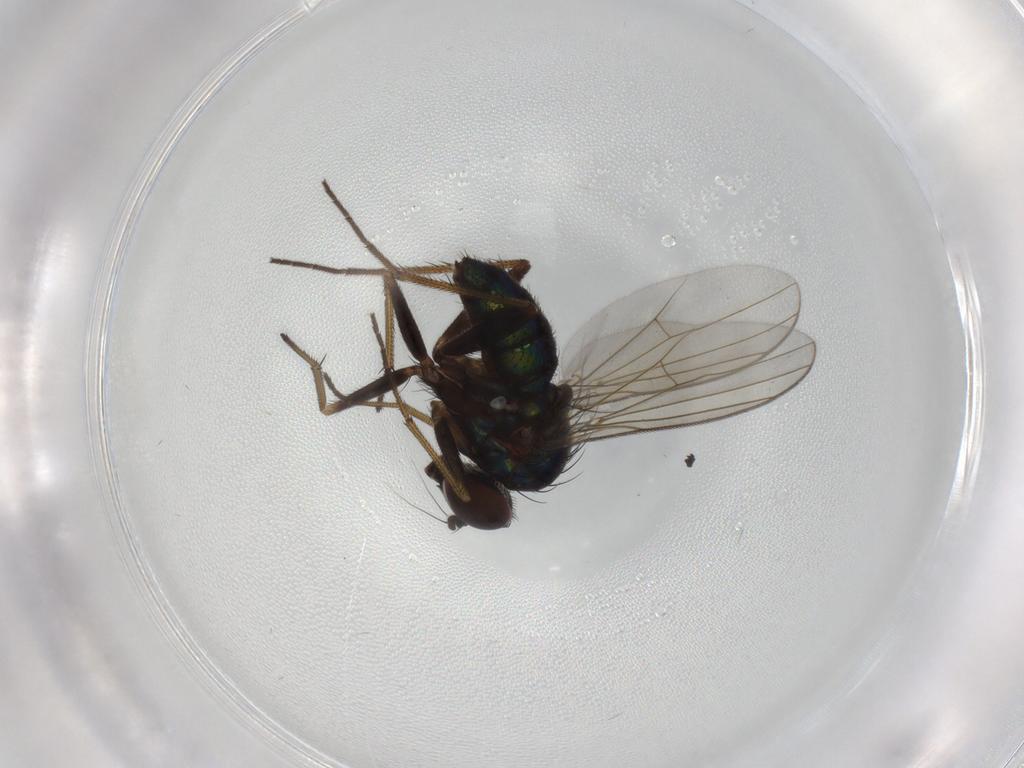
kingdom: Animalia
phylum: Arthropoda
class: Insecta
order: Diptera
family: Dolichopodidae
